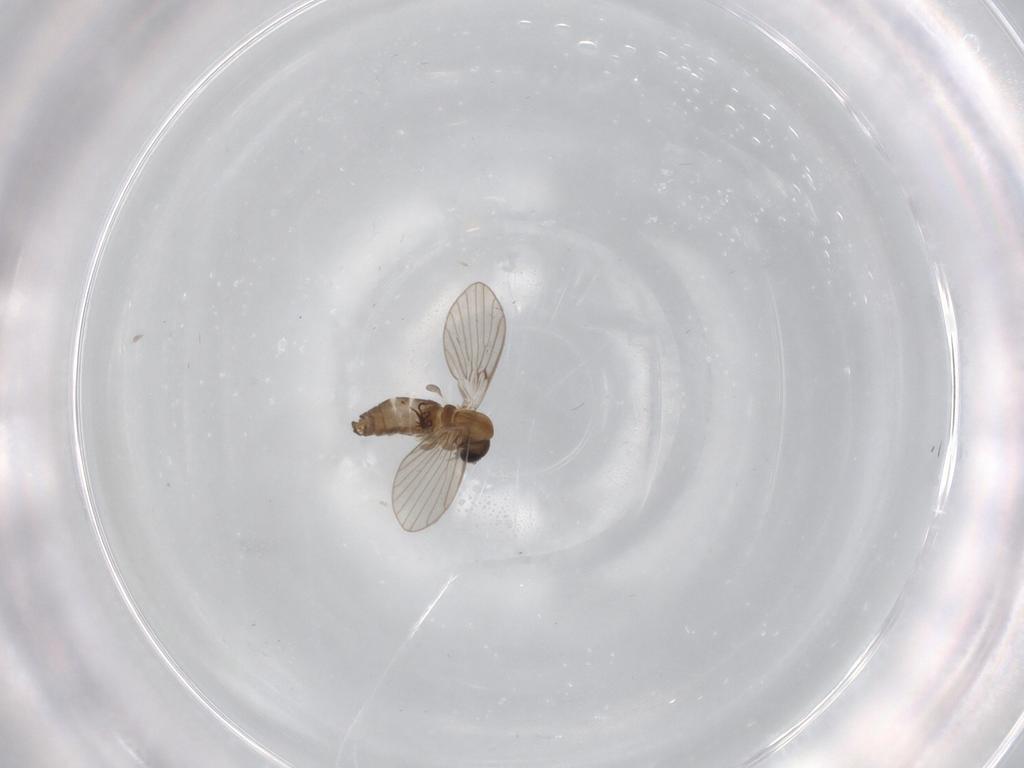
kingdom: Animalia
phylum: Arthropoda
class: Insecta
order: Diptera
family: Psychodidae
